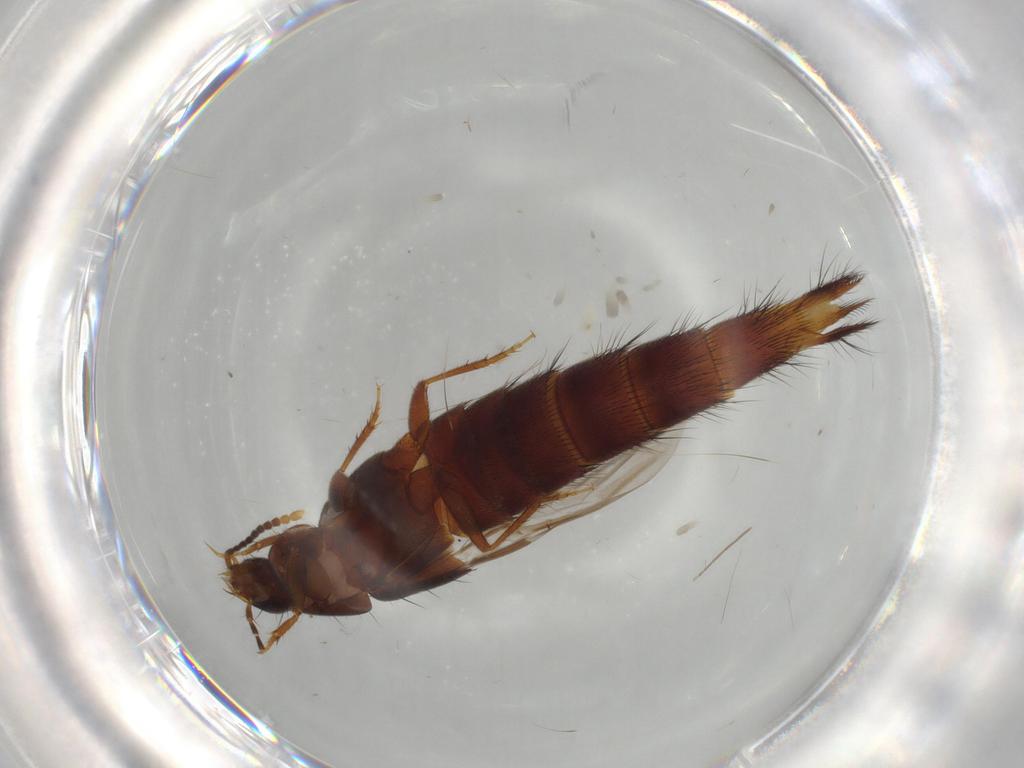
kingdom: Animalia
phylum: Arthropoda
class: Insecta
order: Coleoptera
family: Staphylinidae
